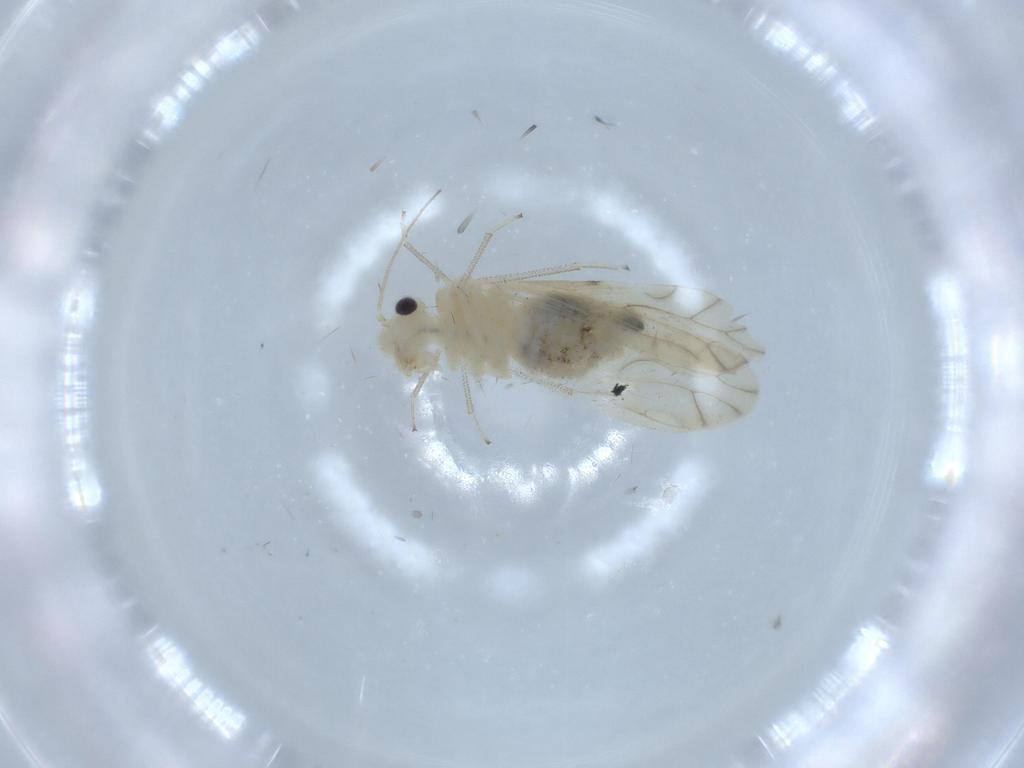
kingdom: Animalia
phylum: Arthropoda
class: Insecta
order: Psocodea
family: Caeciliusidae
